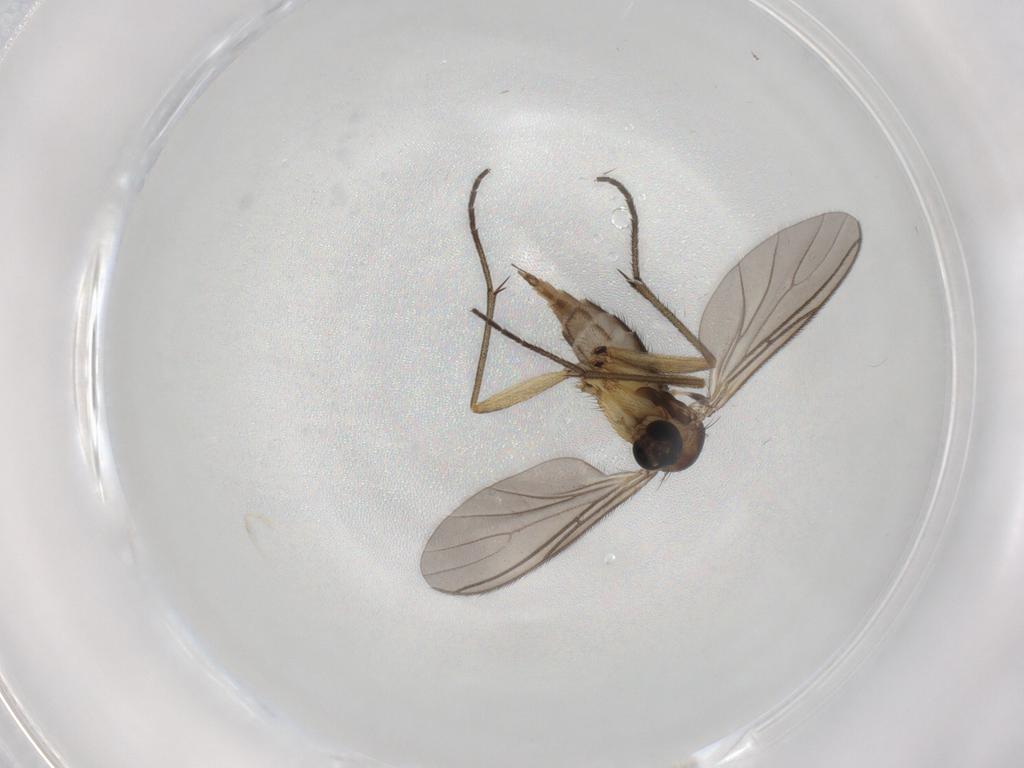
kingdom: Animalia
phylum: Arthropoda
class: Insecta
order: Diptera
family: Sciaridae
